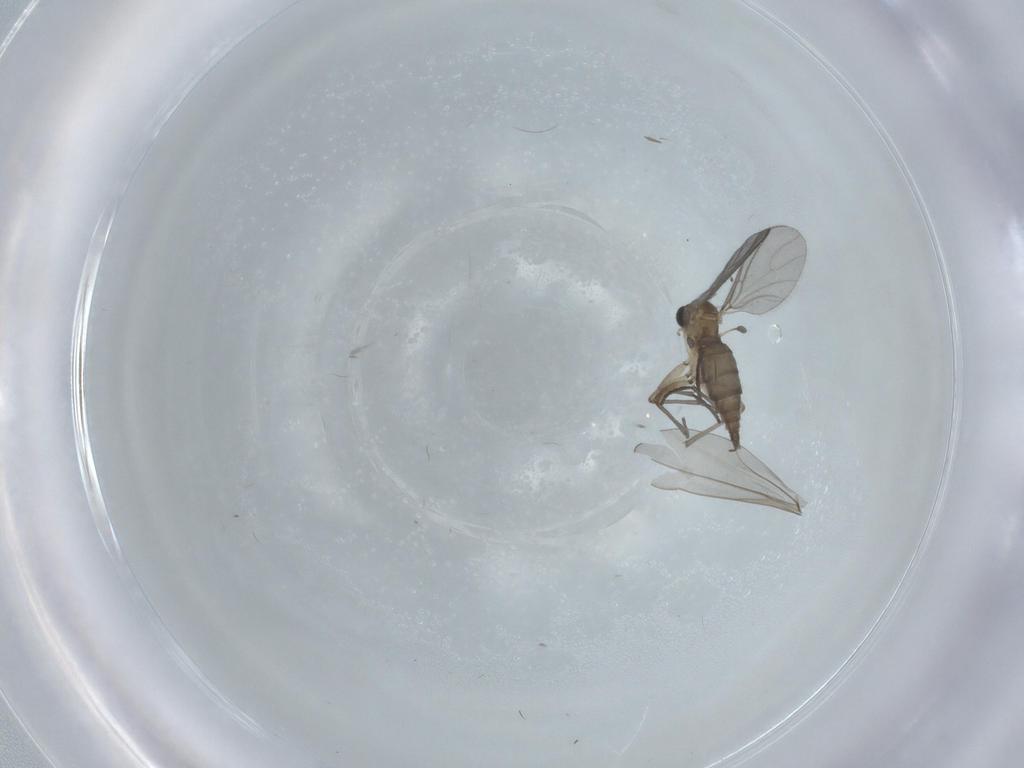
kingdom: Animalia
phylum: Arthropoda
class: Insecta
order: Diptera
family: Sciaridae
